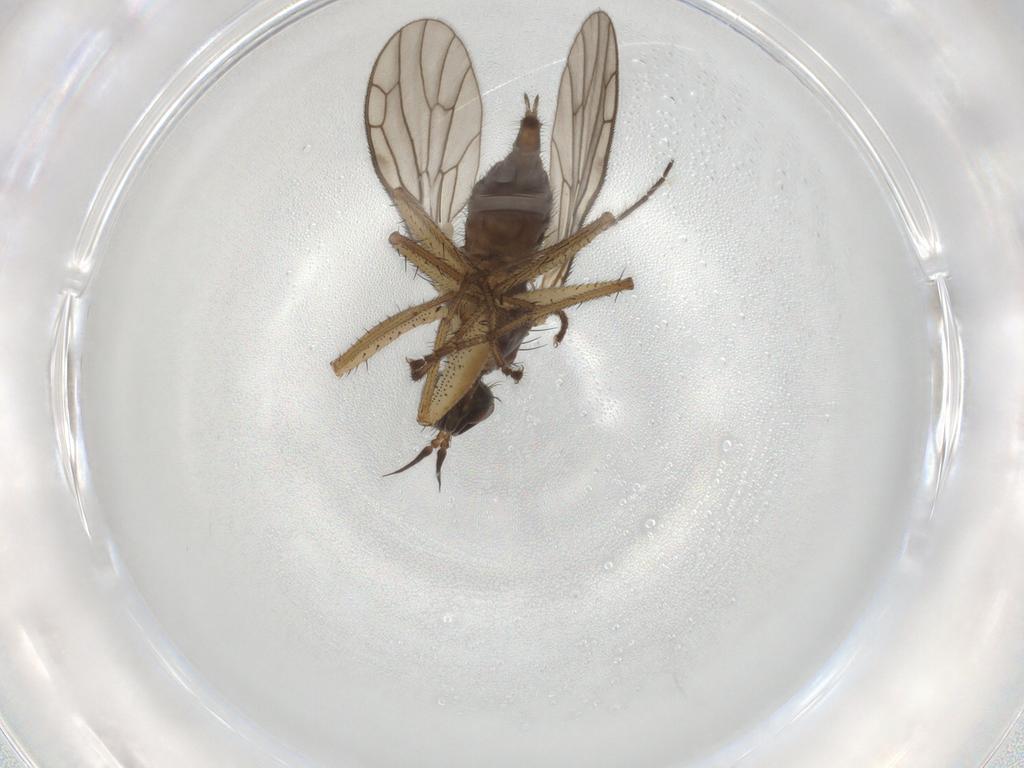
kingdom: Animalia
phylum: Arthropoda
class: Insecta
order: Diptera
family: Chironomidae
